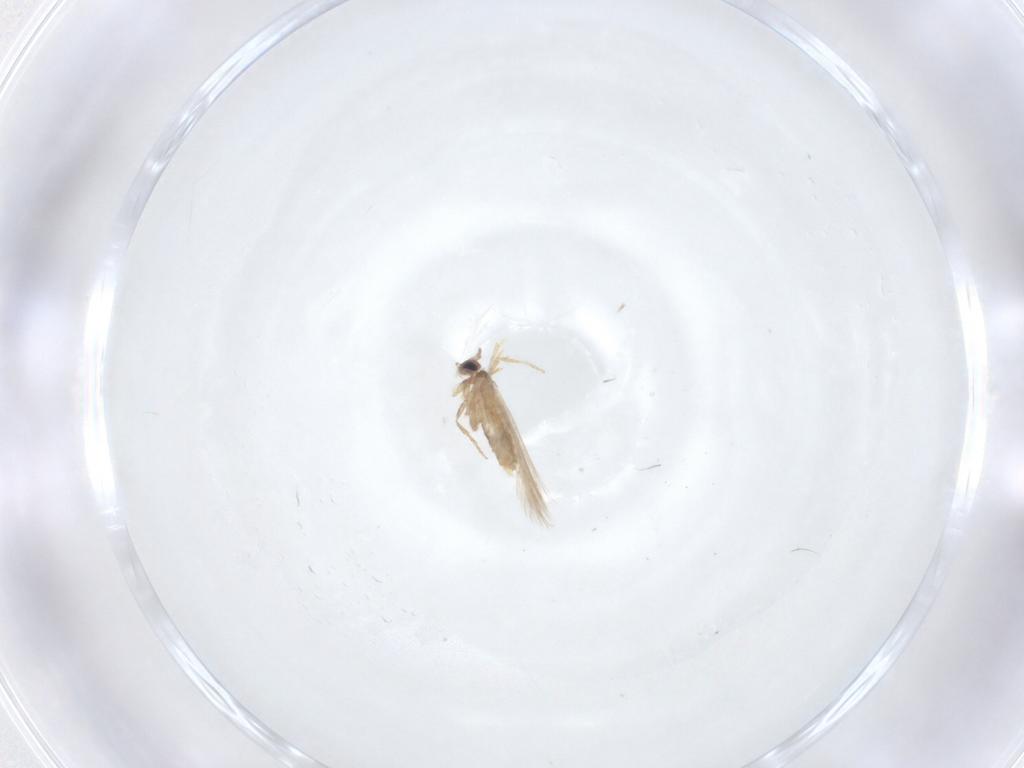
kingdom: Animalia
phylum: Arthropoda
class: Insecta
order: Lepidoptera
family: Nepticulidae
